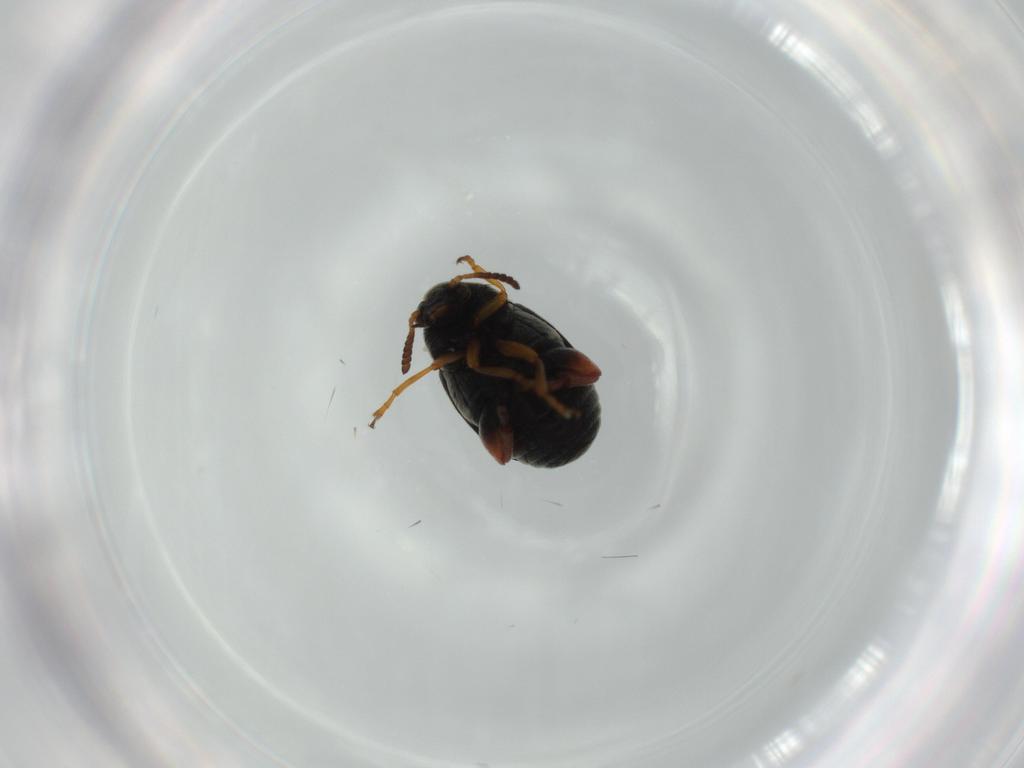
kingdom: Animalia
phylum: Arthropoda
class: Insecta
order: Coleoptera
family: Chrysomelidae
